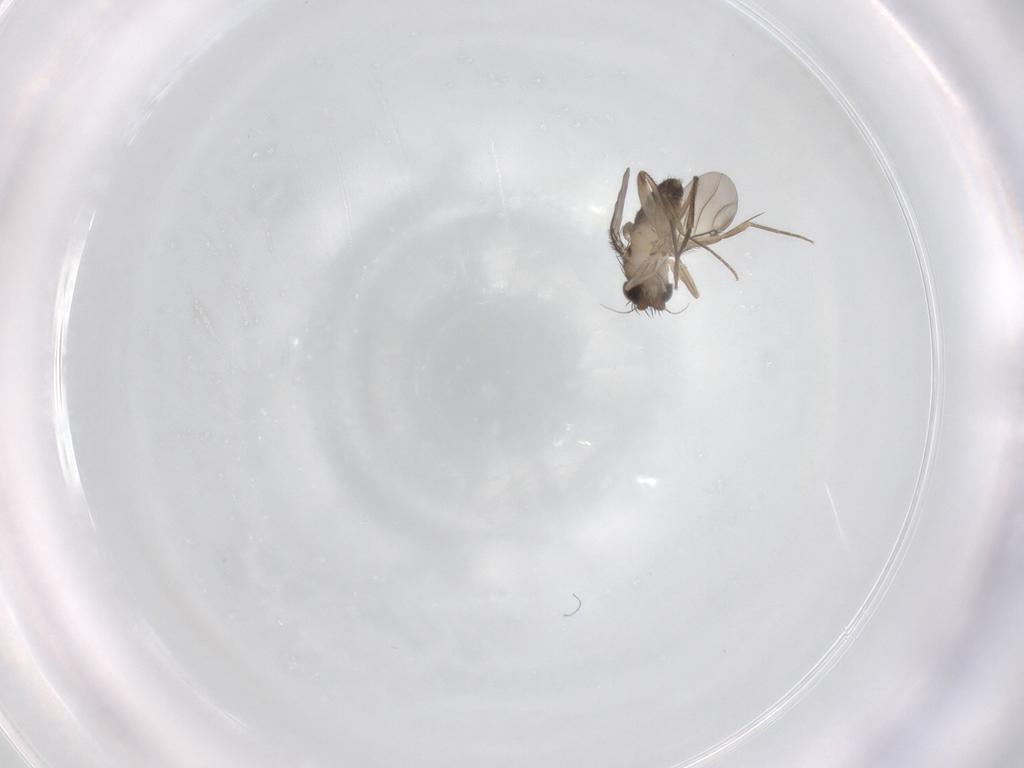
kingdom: Animalia
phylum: Arthropoda
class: Insecta
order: Diptera
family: Phoridae
